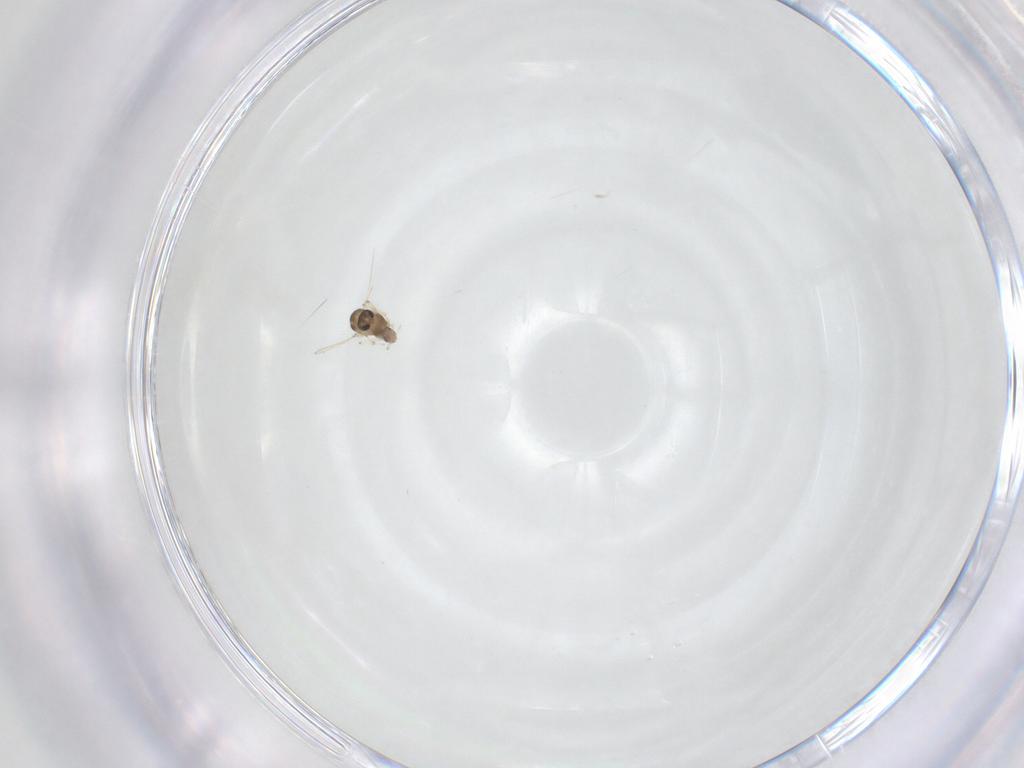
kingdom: Animalia
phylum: Arthropoda
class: Insecta
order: Diptera
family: Chironomidae
